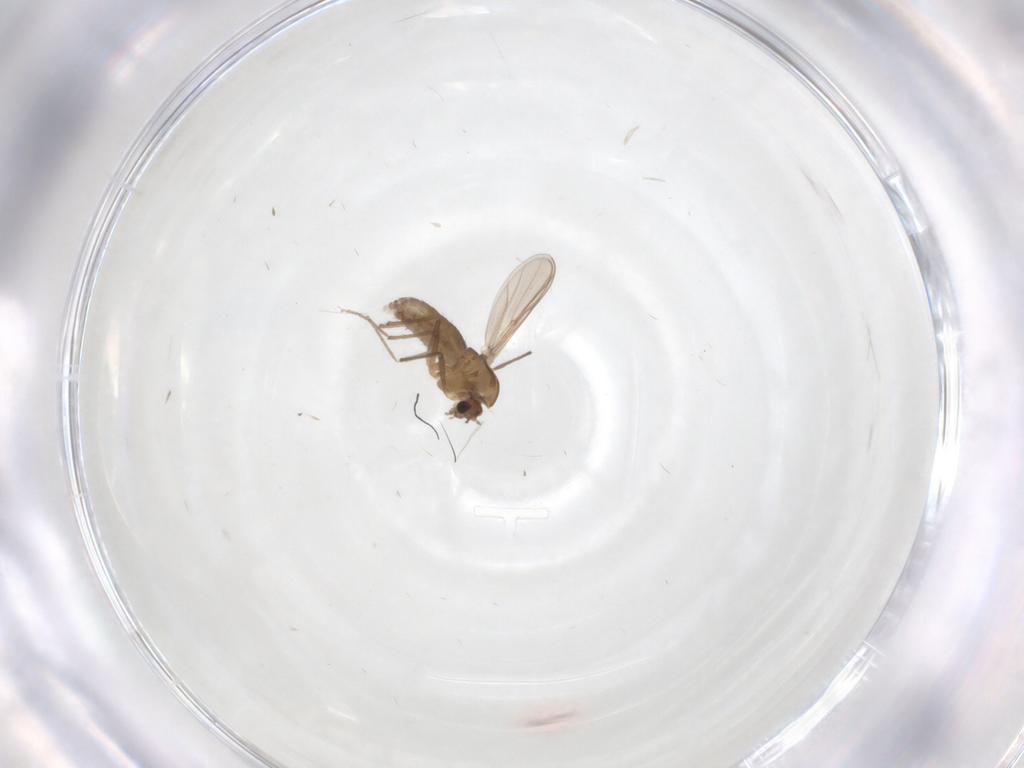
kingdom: Animalia
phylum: Arthropoda
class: Insecta
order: Diptera
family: Chironomidae
